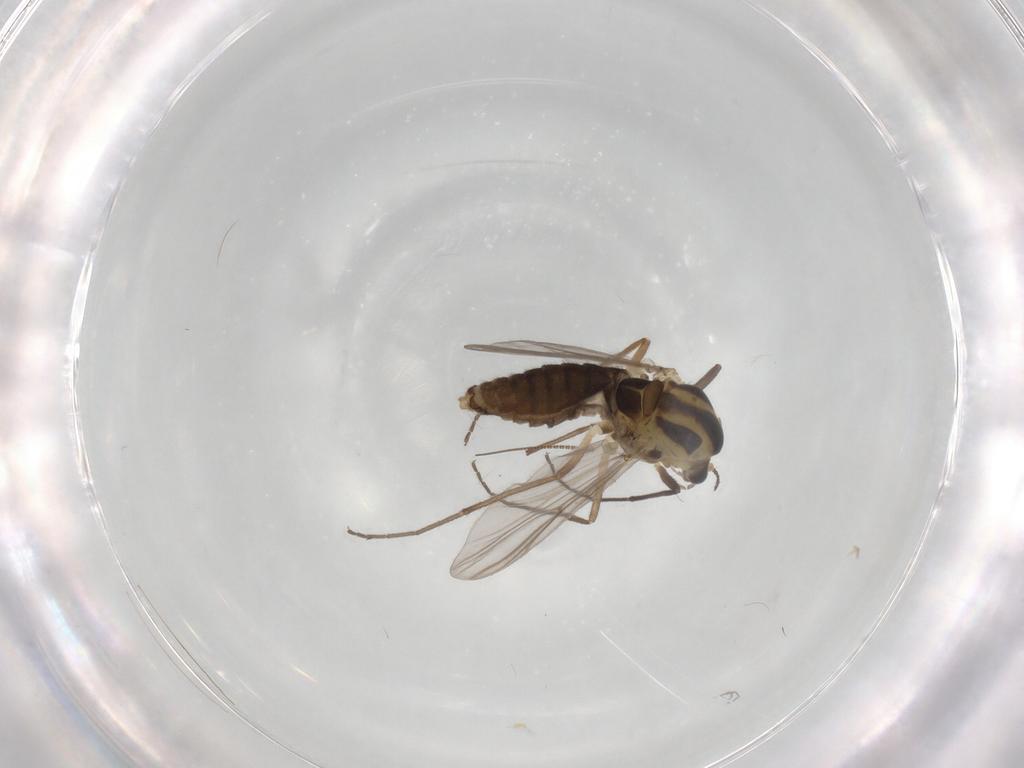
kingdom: Animalia
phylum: Arthropoda
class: Insecta
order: Diptera
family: Chironomidae
